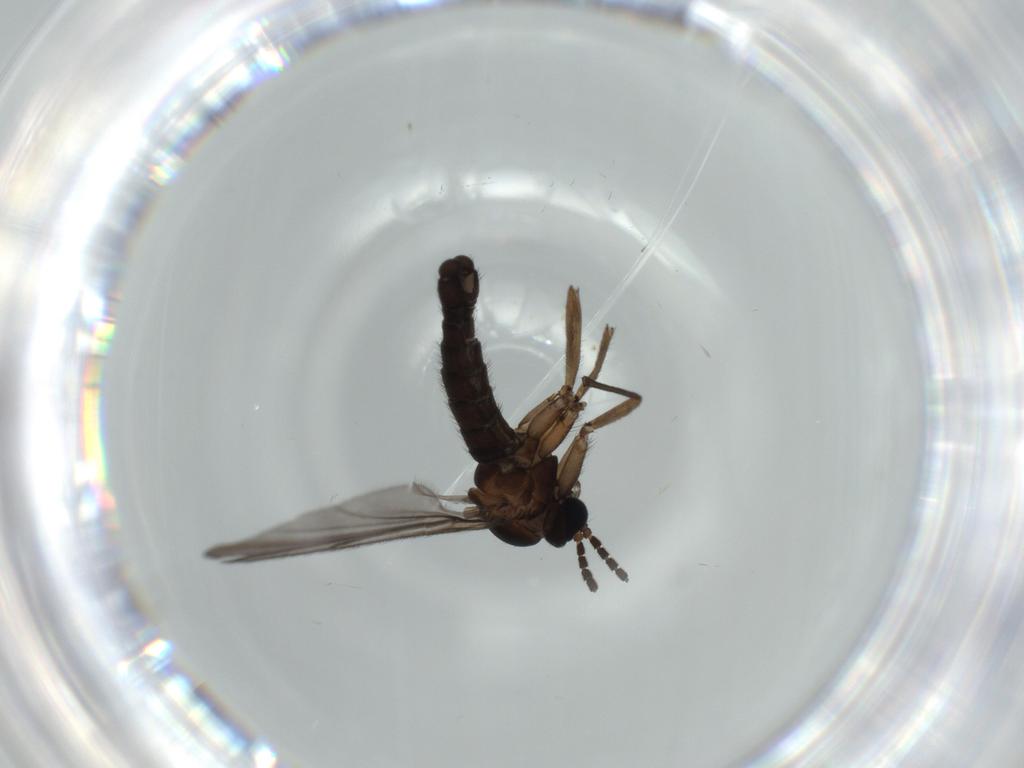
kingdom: Animalia
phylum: Arthropoda
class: Insecta
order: Diptera
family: Sciaridae
